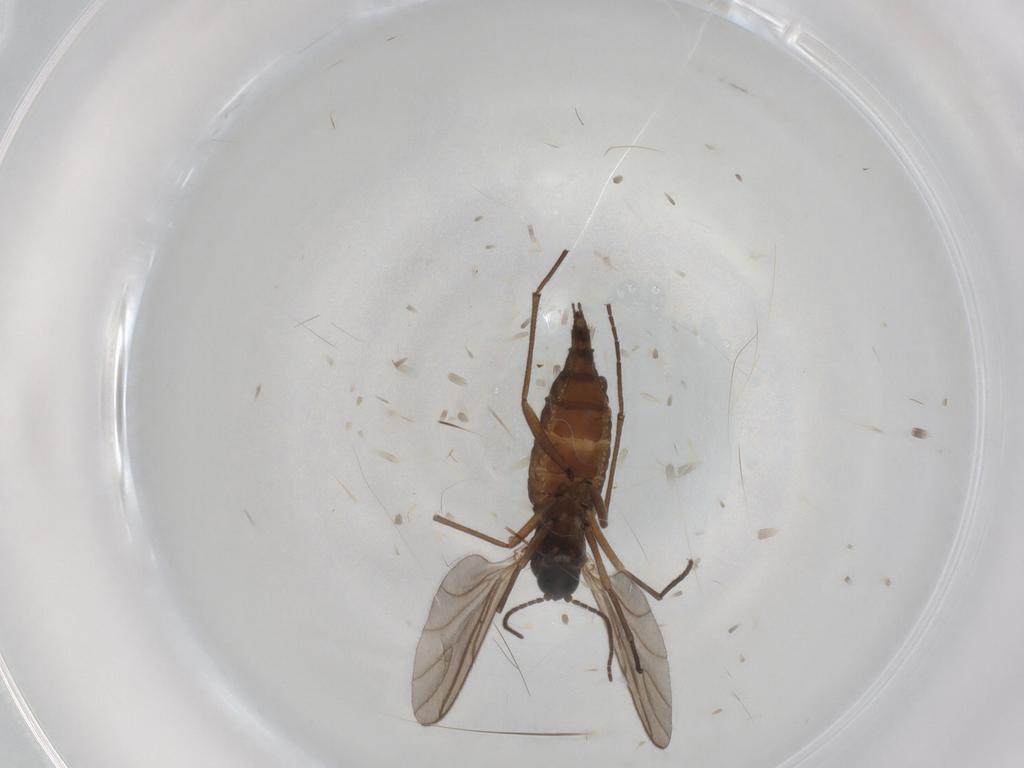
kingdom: Animalia
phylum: Arthropoda
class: Insecta
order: Diptera
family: Sciaridae
